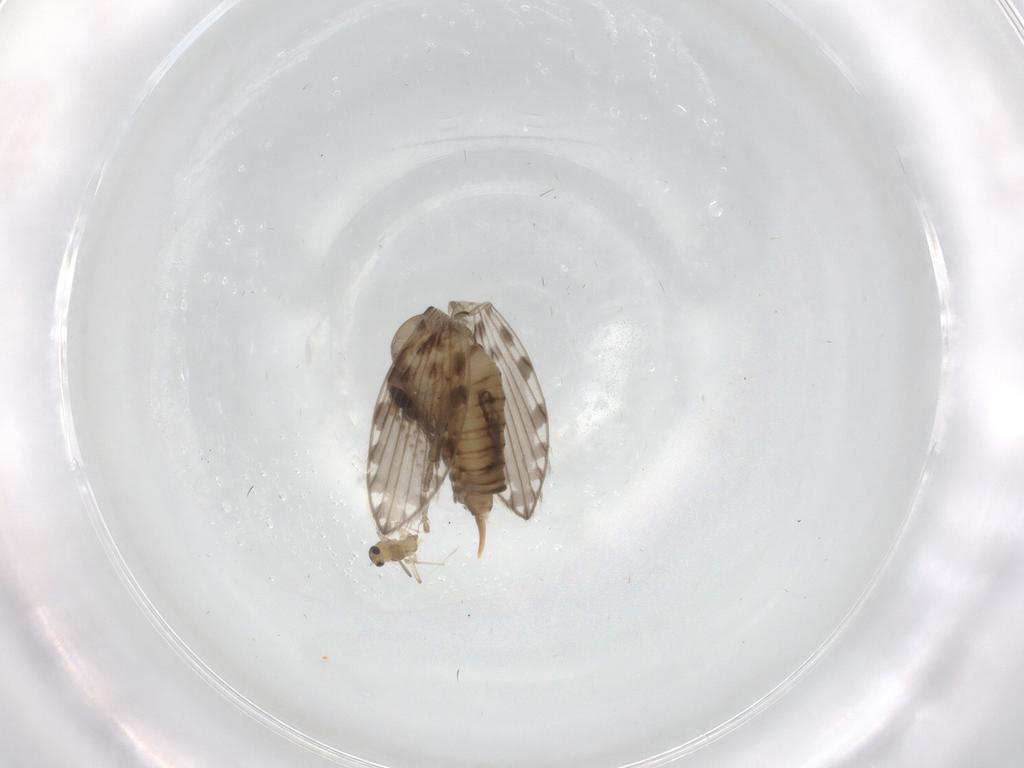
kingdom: Animalia
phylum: Arthropoda
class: Insecta
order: Diptera
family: Psychodidae
